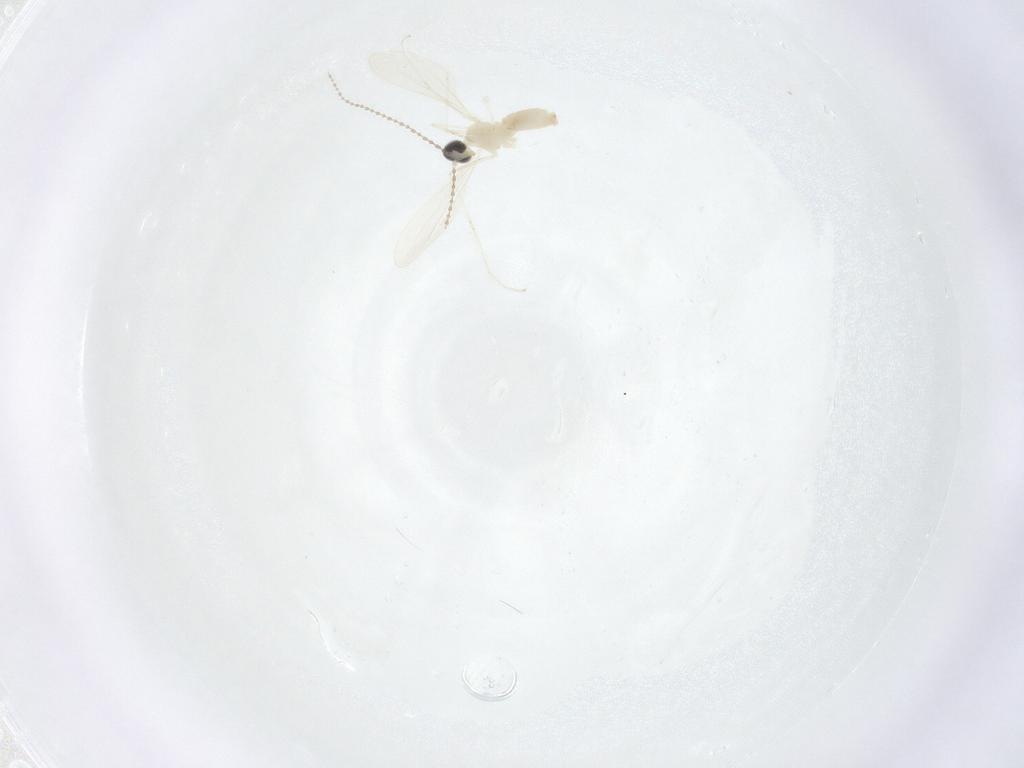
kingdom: Animalia
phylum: Arthropoda
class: Insecta
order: Diptera
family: Cecidomyiidae
